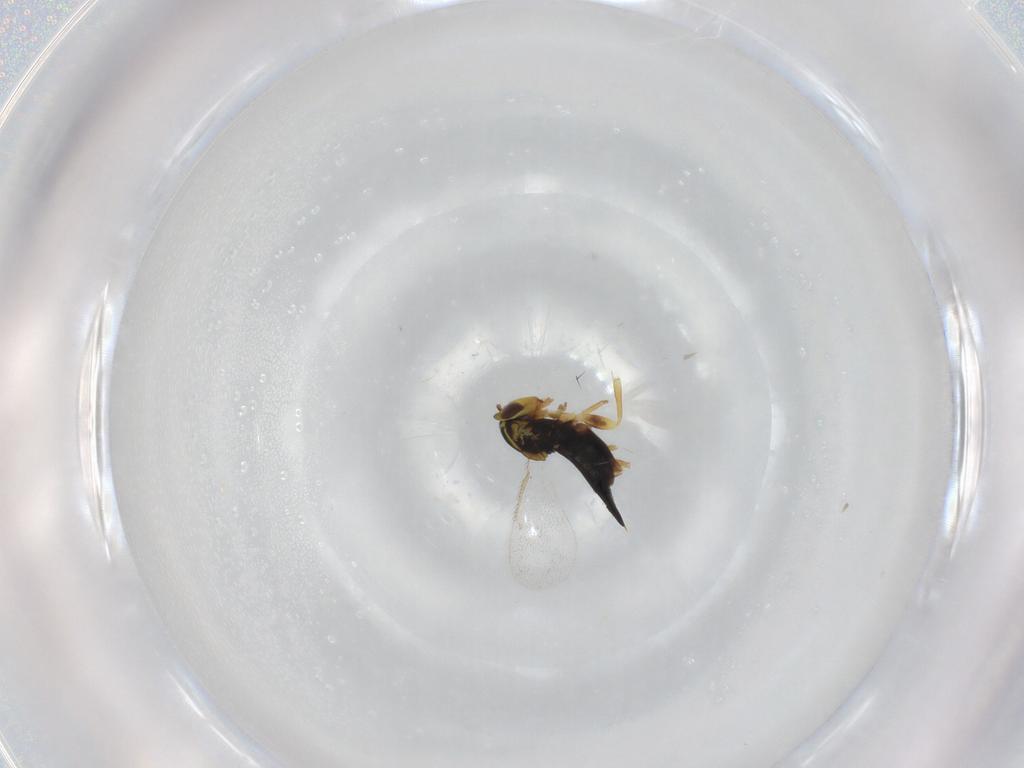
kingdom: Animalia
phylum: Arthropoda
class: Insecta
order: Hymenoptera
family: Eulophidae
